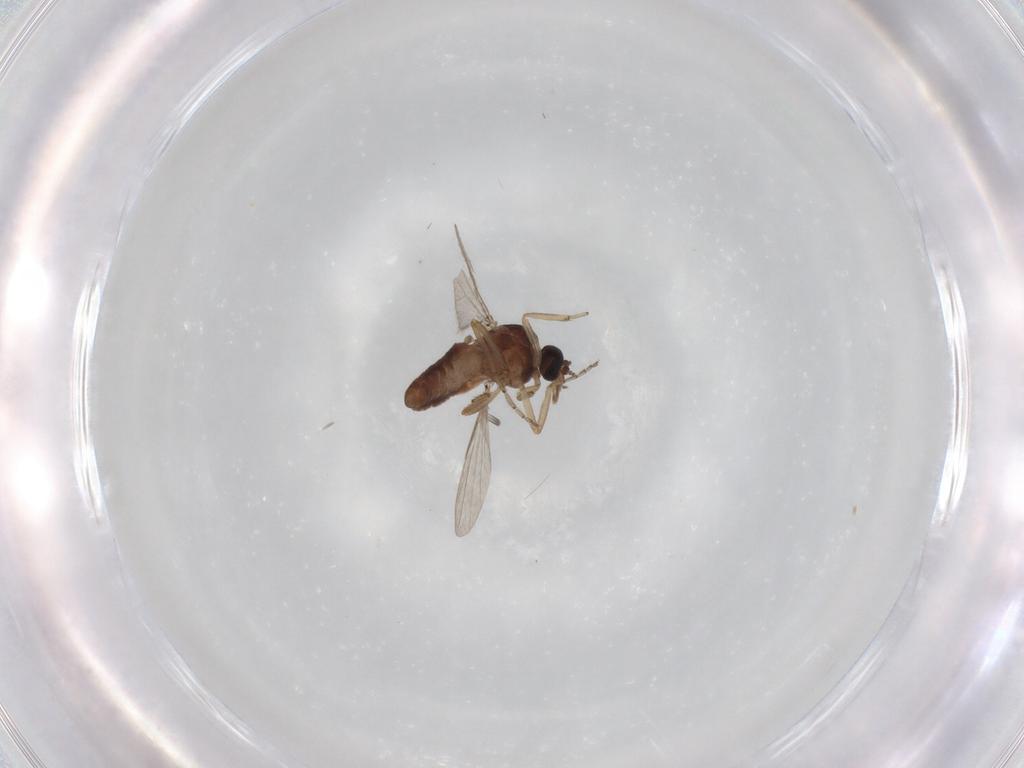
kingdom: Animalia
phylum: Arthropoda
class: Insecta
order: Diptera
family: Ceratopogonidae
